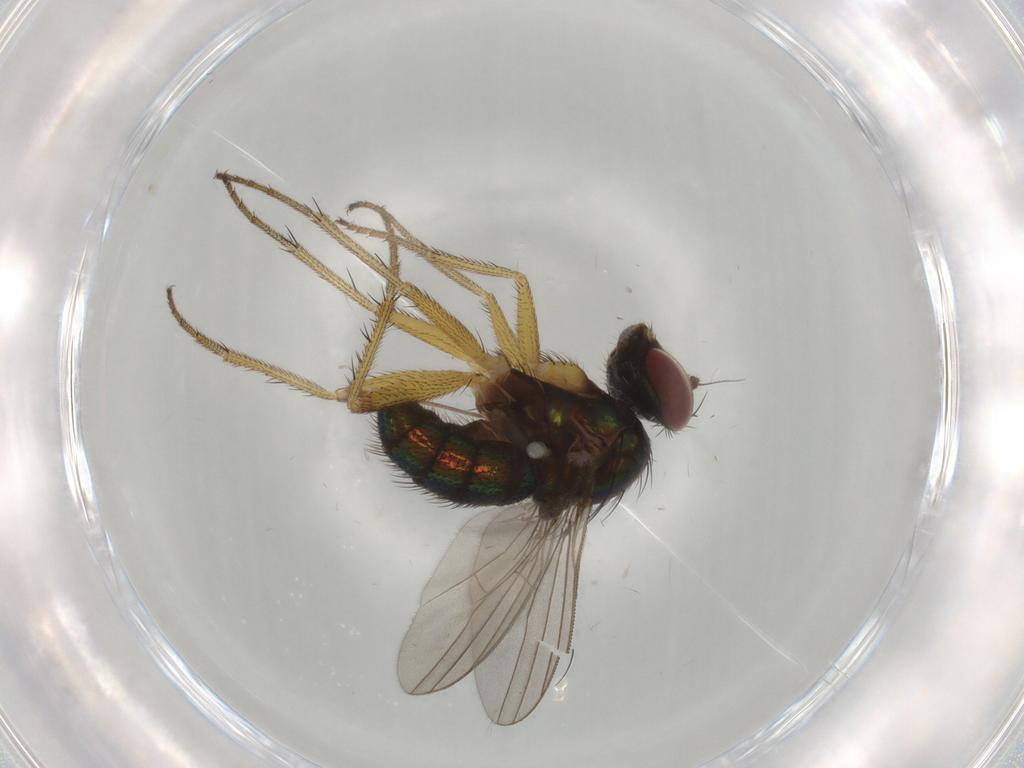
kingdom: Animalia
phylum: Arthropoda
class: Insecta
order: Diptera
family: Dolichopodidae
